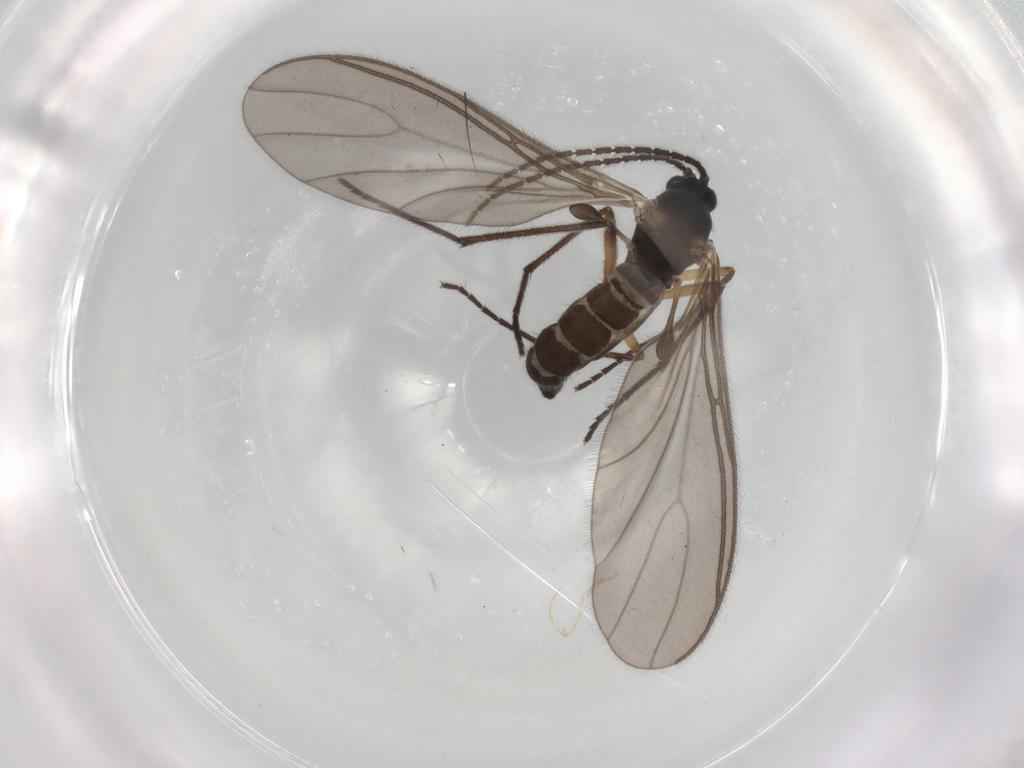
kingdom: Animalia
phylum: Arthropoda
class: Insecta
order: Diptera
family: Sciaridae
